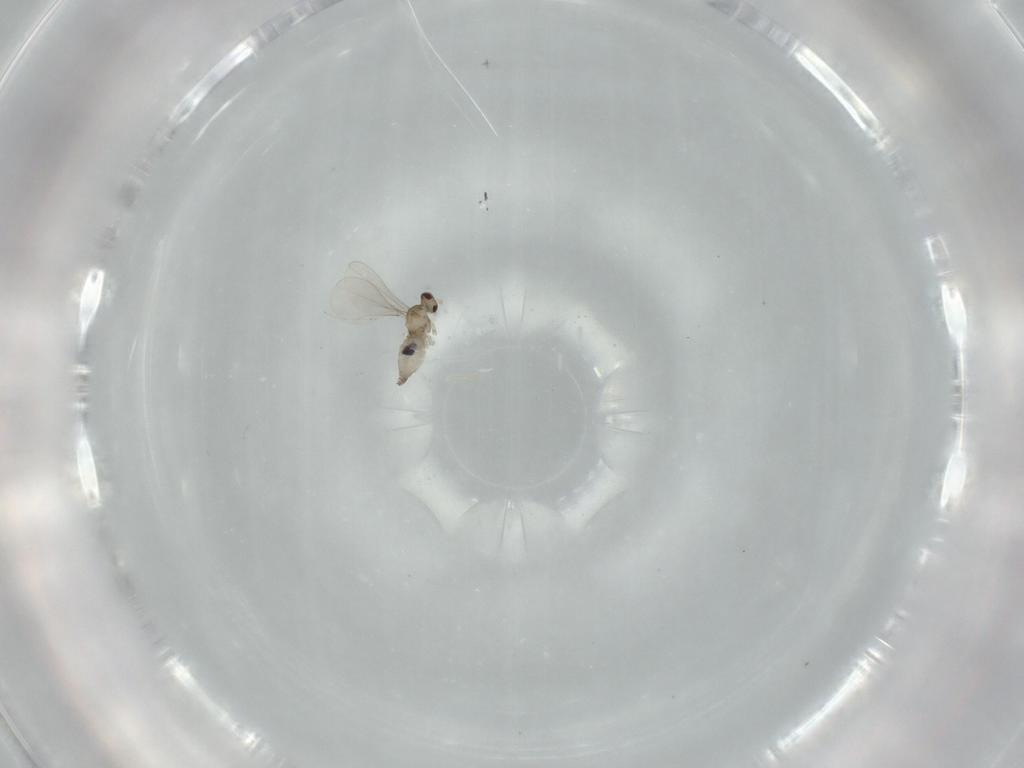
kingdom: Animalia
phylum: Arthropoda
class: Insecta
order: Diptera
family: Cecidomyiidae
